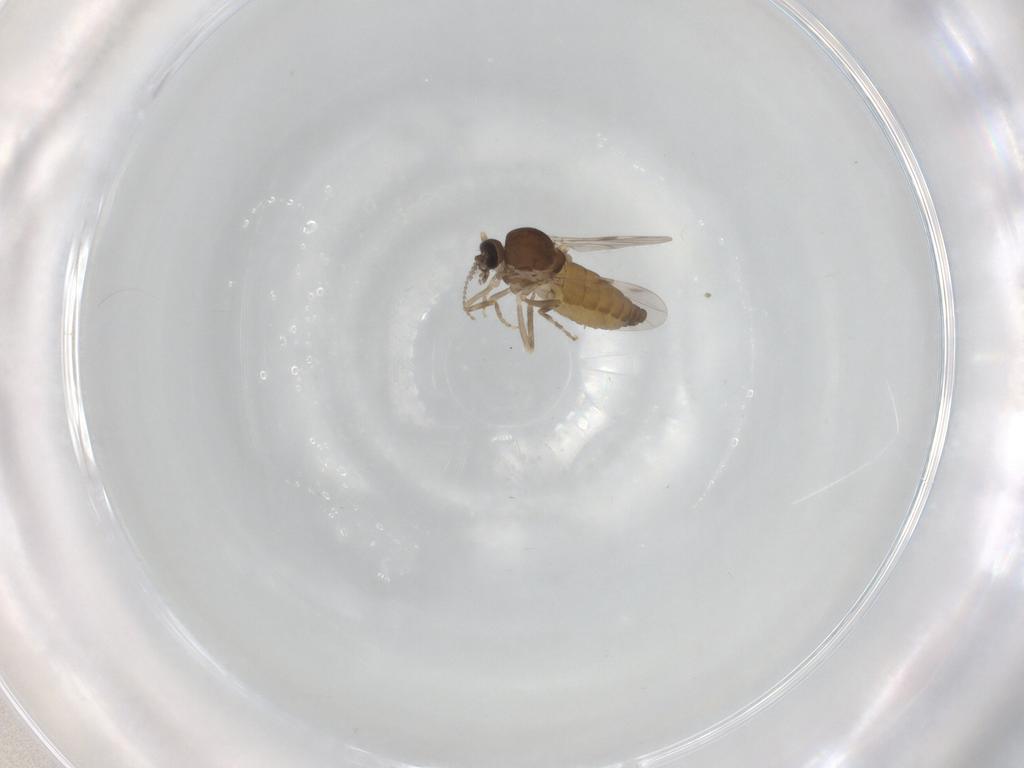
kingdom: Animalia
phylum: Arthropoda
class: Insecta
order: Diptera
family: Ceratopogonidae
